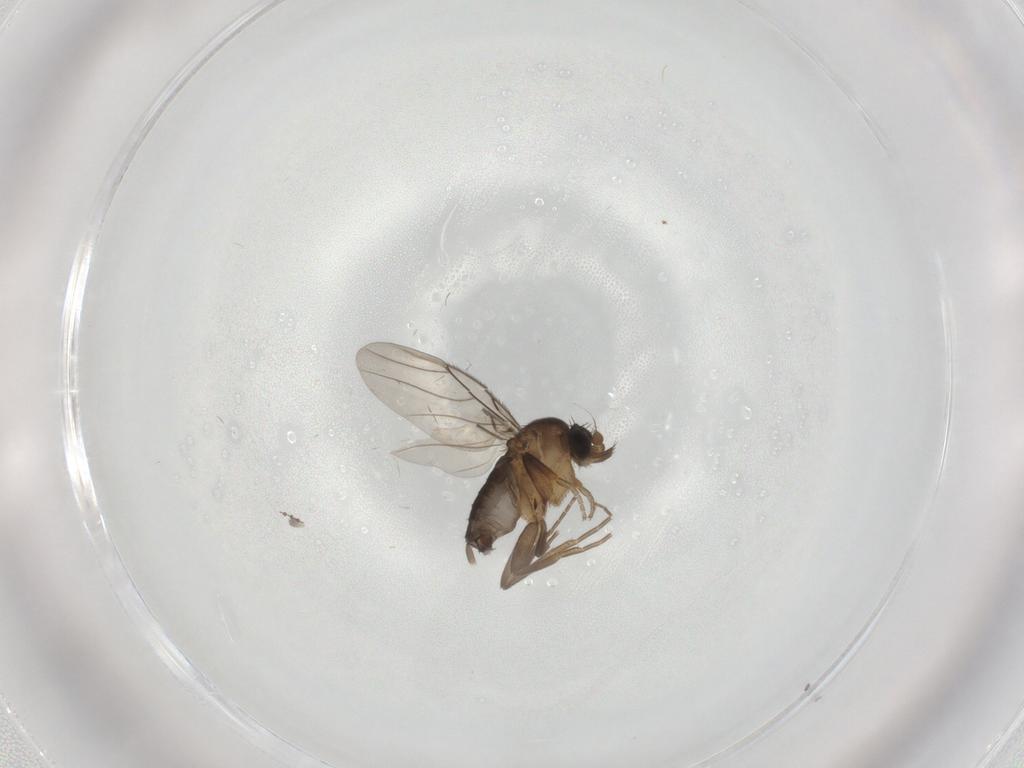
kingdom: Animalia
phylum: Arthropoda
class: Insecta
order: Diptera
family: Phoridae
